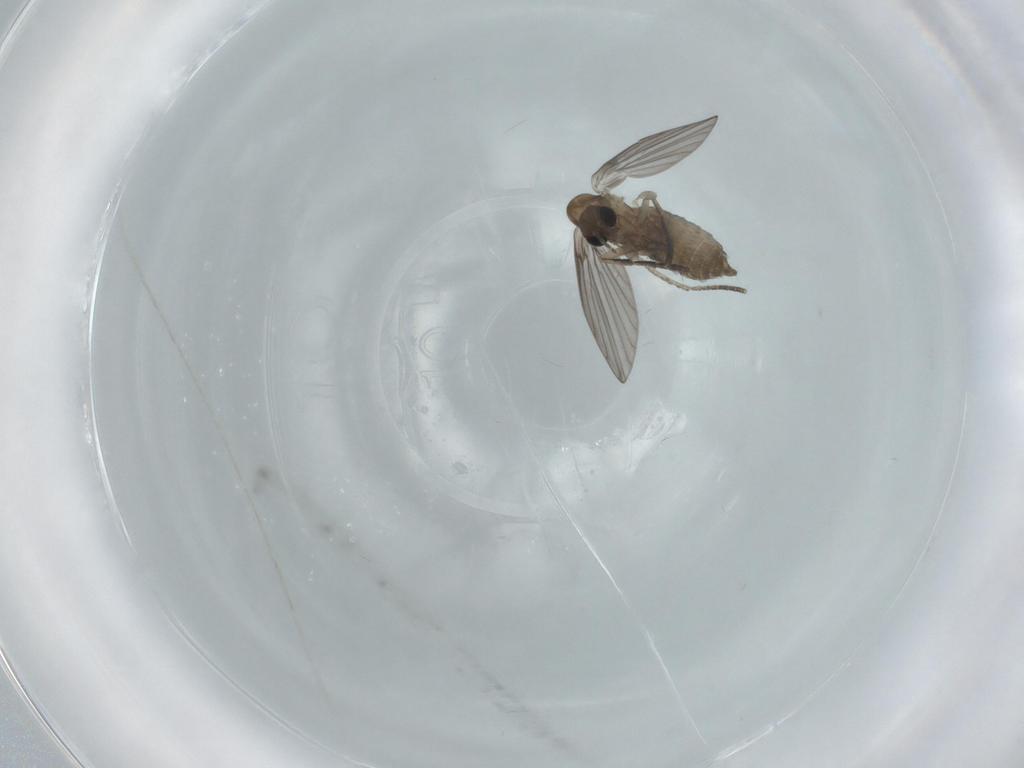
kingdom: Animalia
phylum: Arthropoda
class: Insecta
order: Diptera
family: Psychodidae
